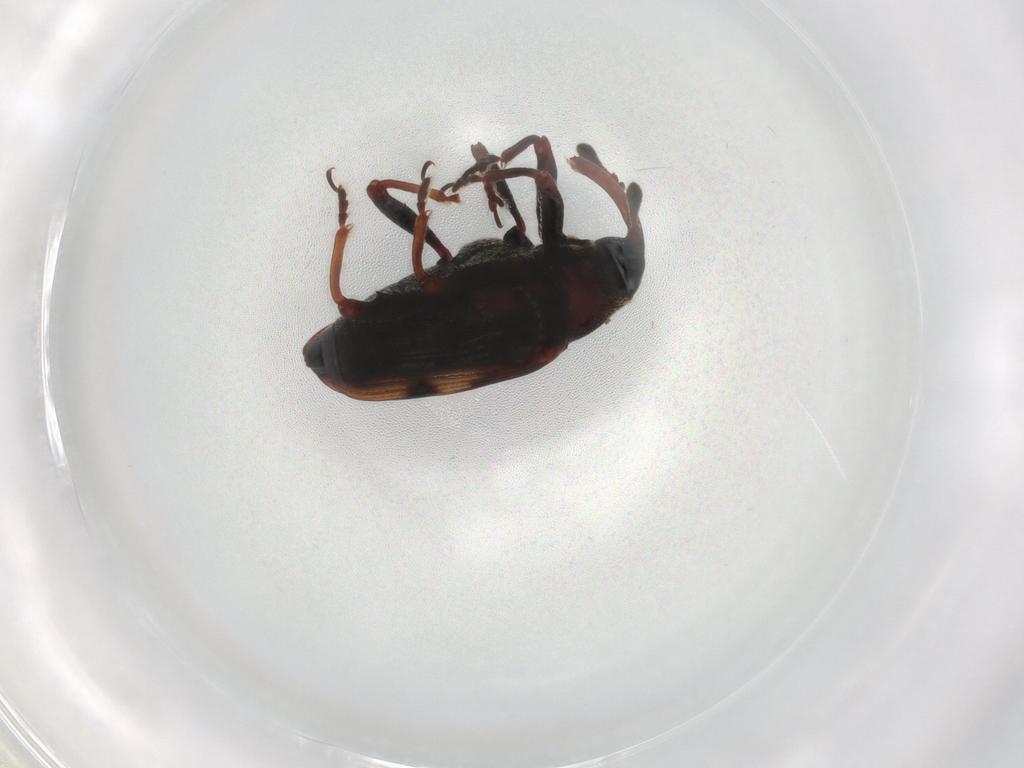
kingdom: Animalia
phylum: Arthropoda
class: Insecta
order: Coleoptera
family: Curculionidae
